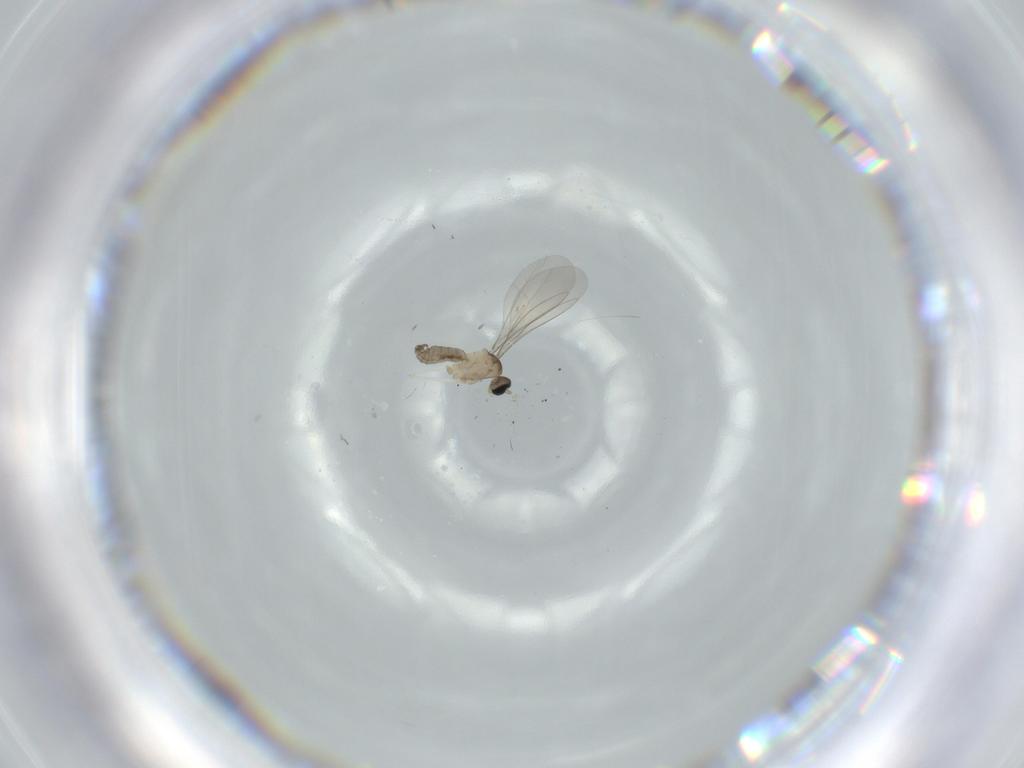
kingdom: Animalia
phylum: Arthropoda
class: Insecta
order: Diptera
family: Cecidomyiidae
